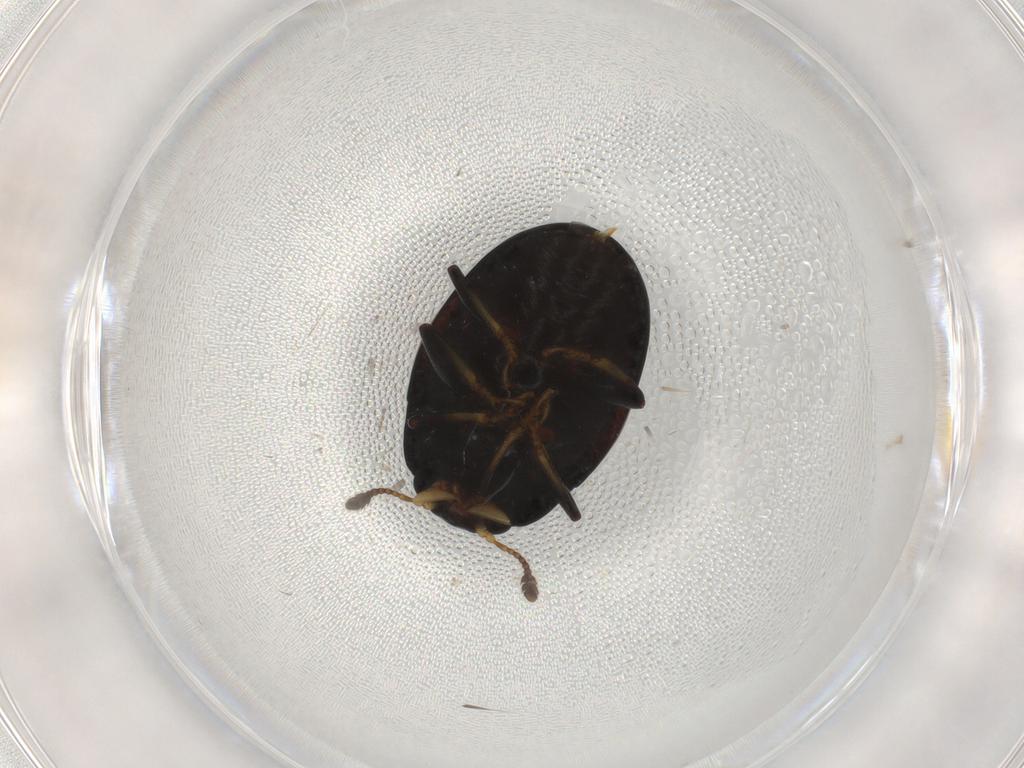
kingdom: Animalia
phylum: Arthropoda
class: Insecta
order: Coleoptera
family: Erotylidae
